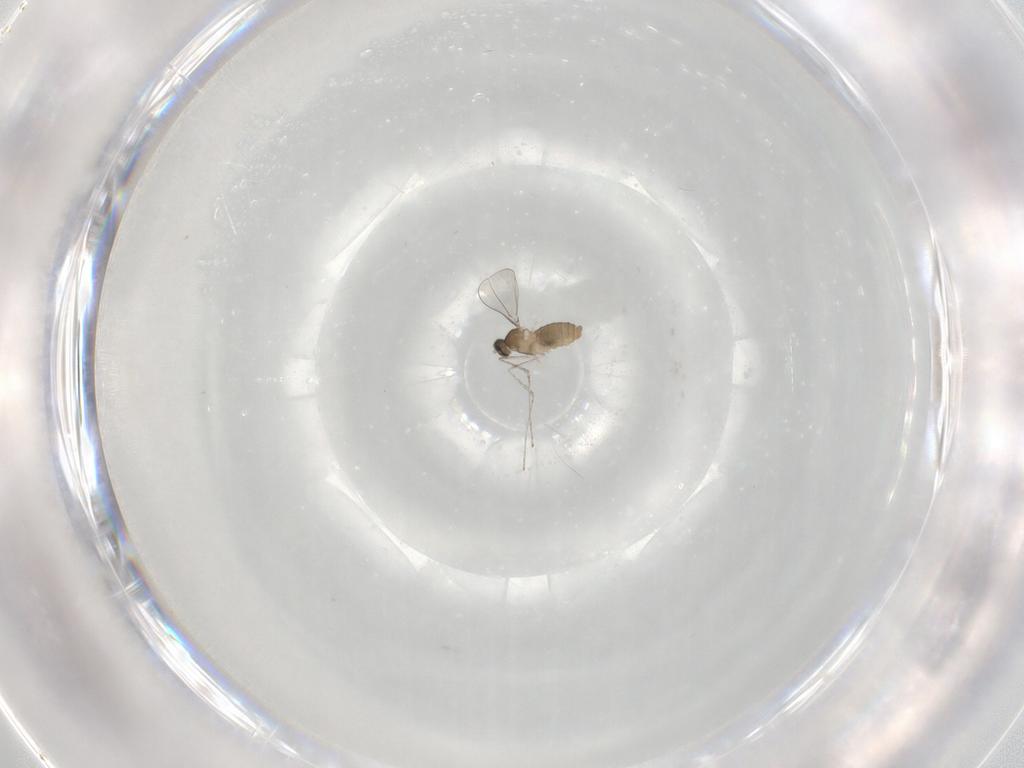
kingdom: Animalia
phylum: Arthropoda
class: Insecta
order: Diptera
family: Cecidomyiidae
